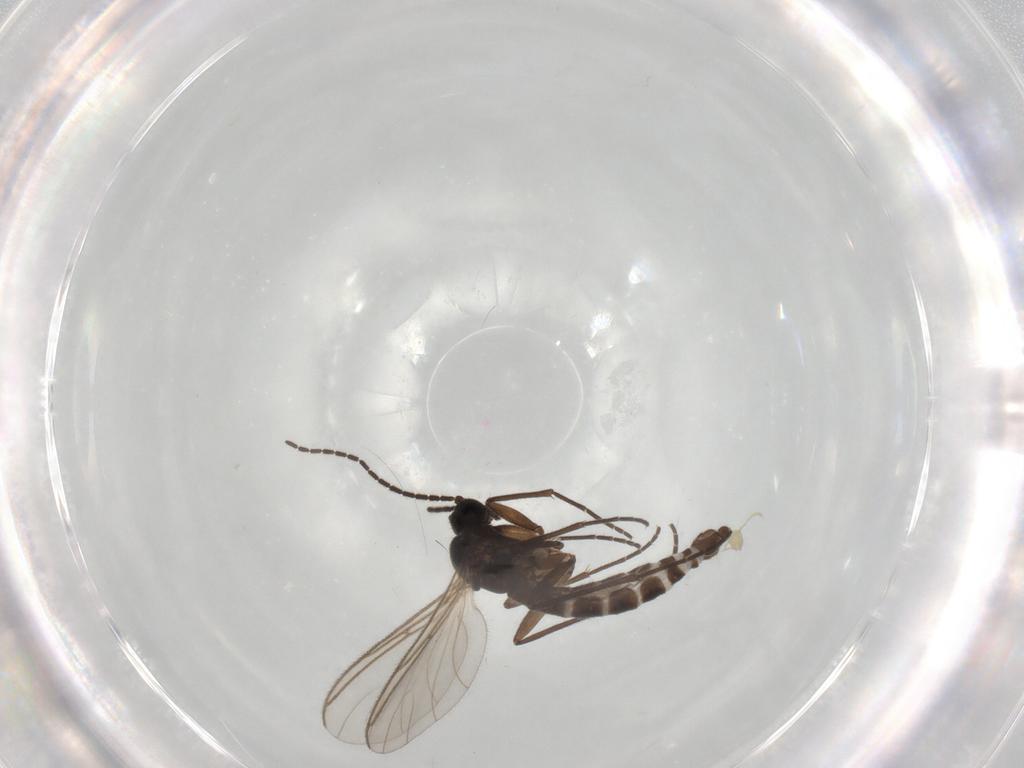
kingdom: Animalia
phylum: Arthropoda
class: Insecta
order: Diptera
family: Sciaridae
